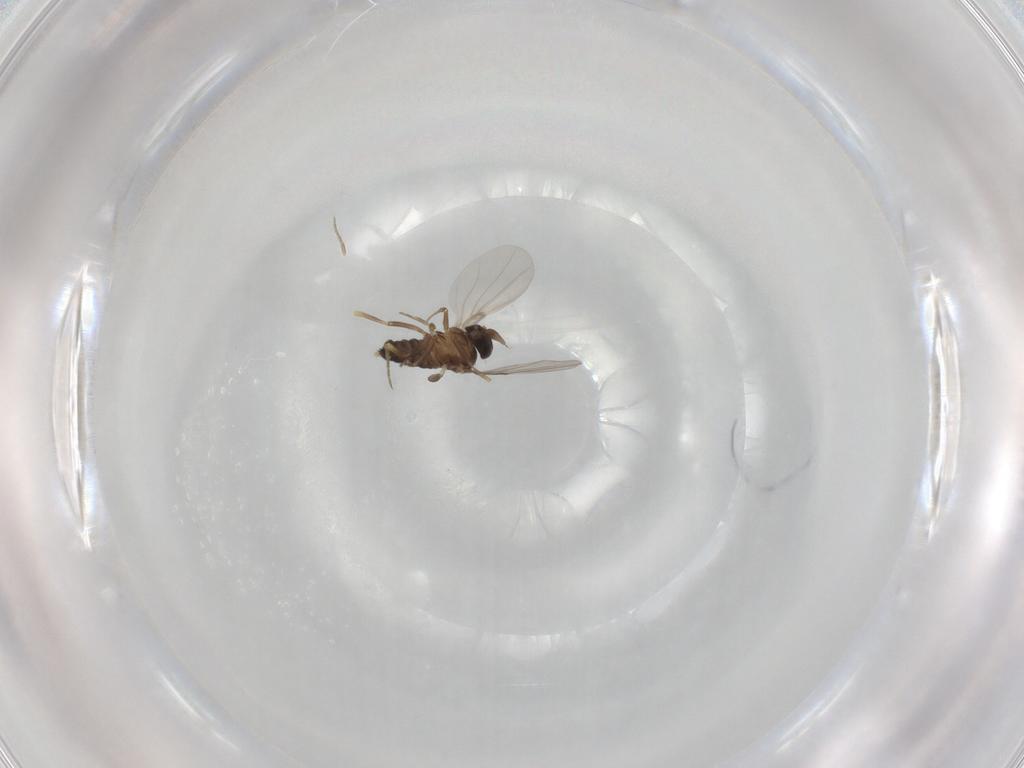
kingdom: Animalia
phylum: Arthropoda
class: Insecta
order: Diptera
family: Phoridae
